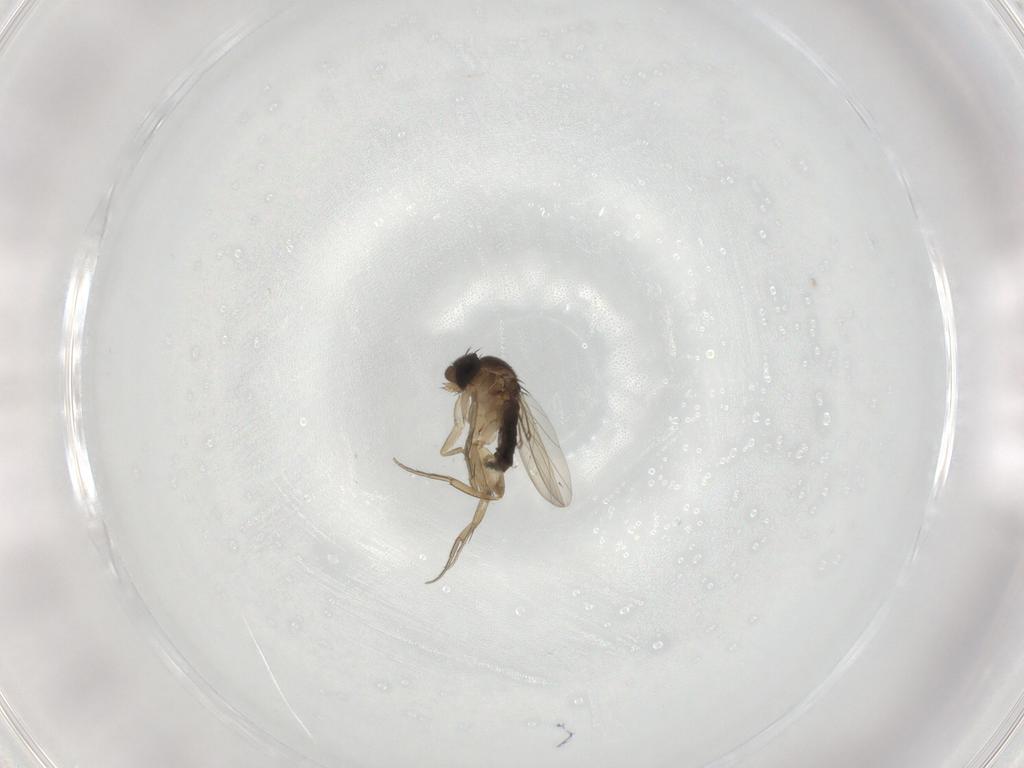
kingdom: Animalia
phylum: Arthropoda
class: Insecta
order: Diptera
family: Phoridae
